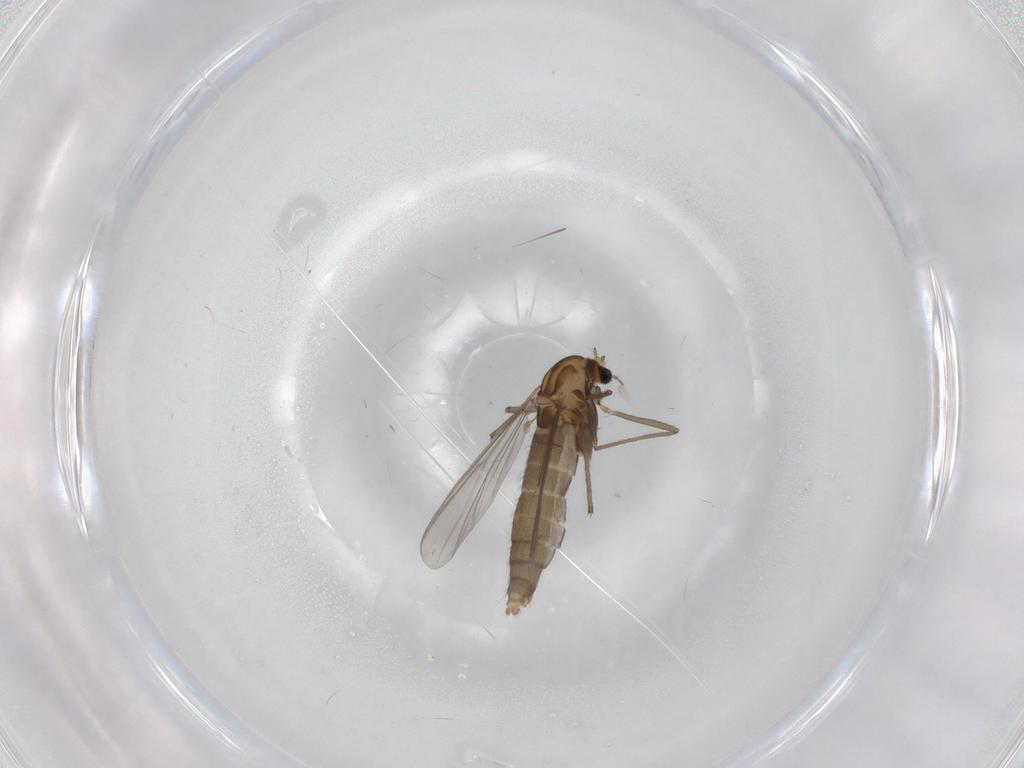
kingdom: Animalia
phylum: Arthropoda
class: Insecta
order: Diptera
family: Chironomidae
